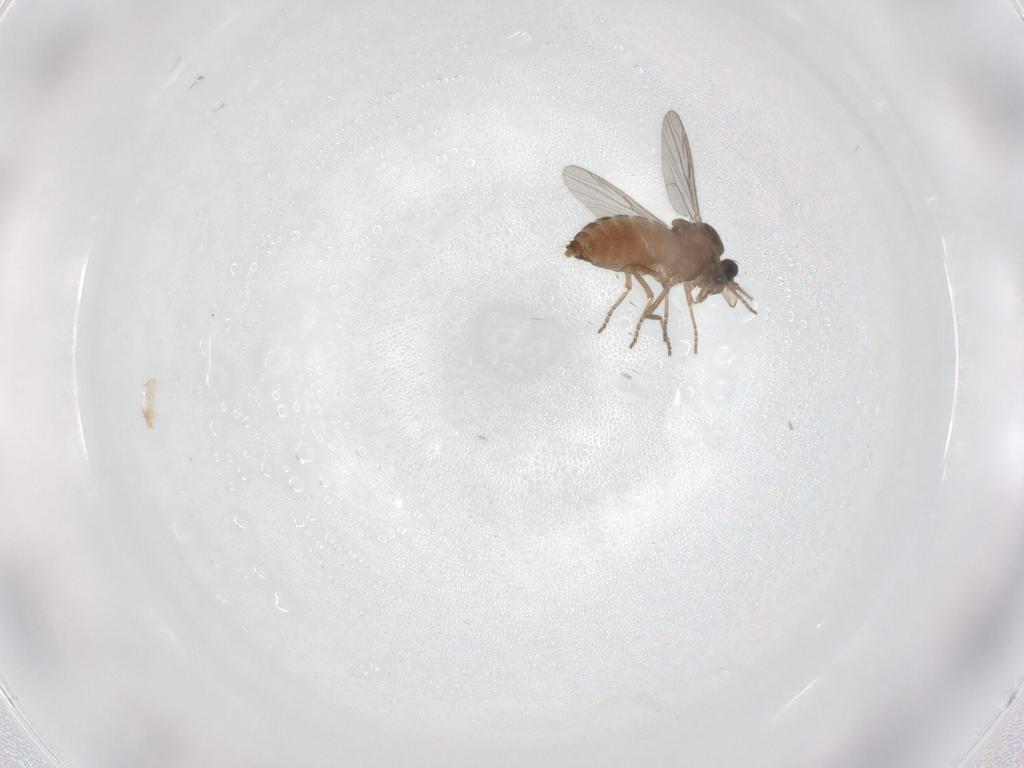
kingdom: Animalia
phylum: Arthropoda
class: Insecta
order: Diptera
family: Ceratopogonidae
